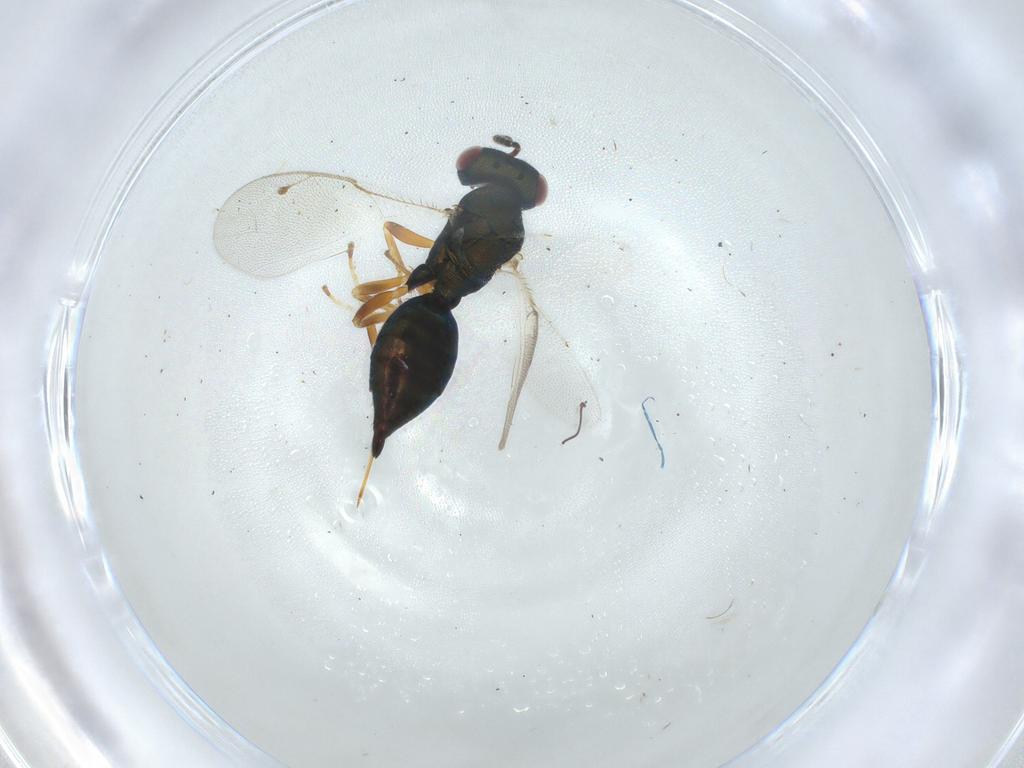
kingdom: Animalia
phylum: Arthropoda
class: Insecta
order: Hymenoptera
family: Pteromalidae
